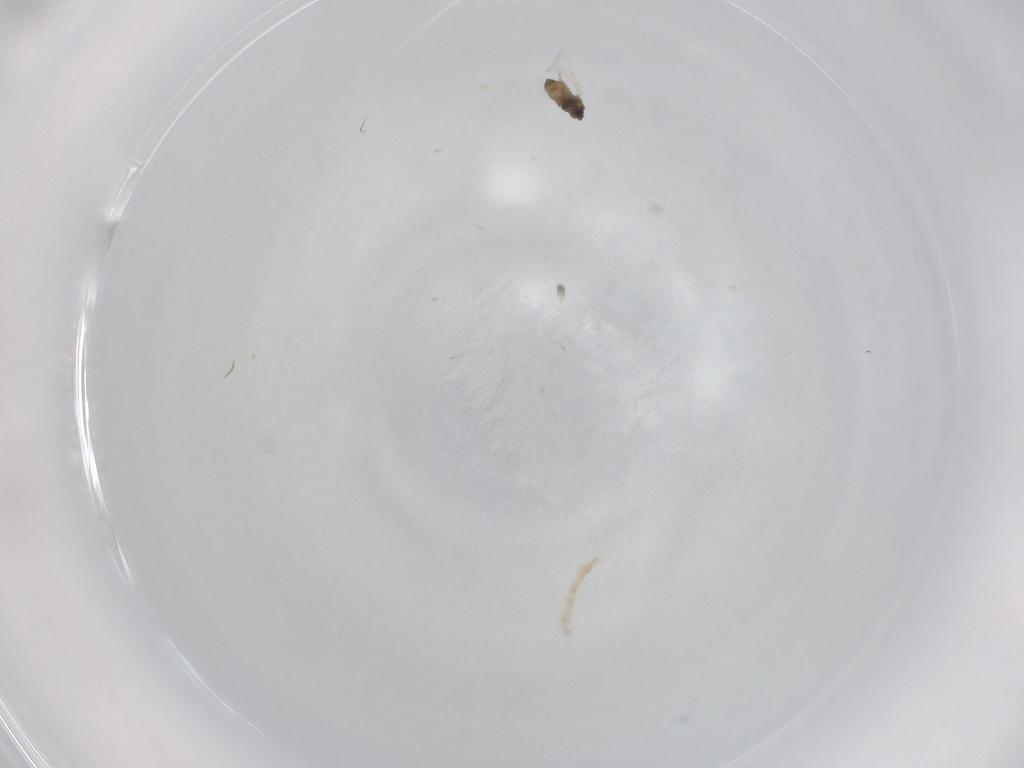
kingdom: Animalia
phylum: Arthropoda
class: Insecta
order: Diptera
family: Cecidomyiidae
